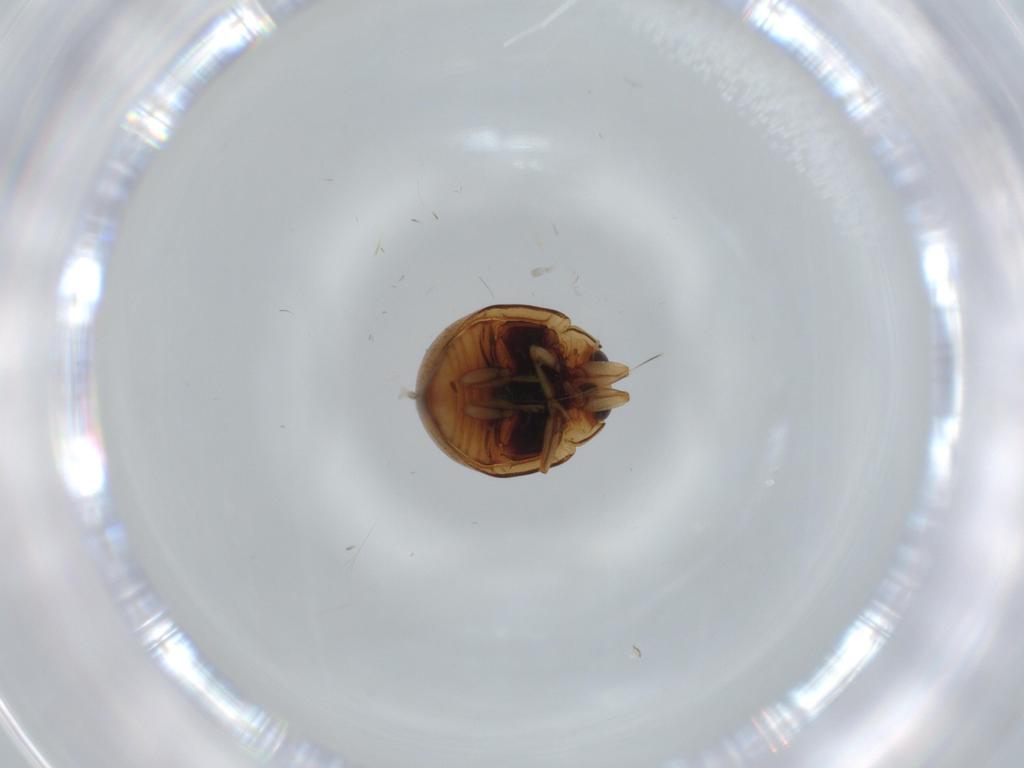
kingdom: Animalia
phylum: Arthropoda
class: Insecta
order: Coleoptera
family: Coccinellidae
